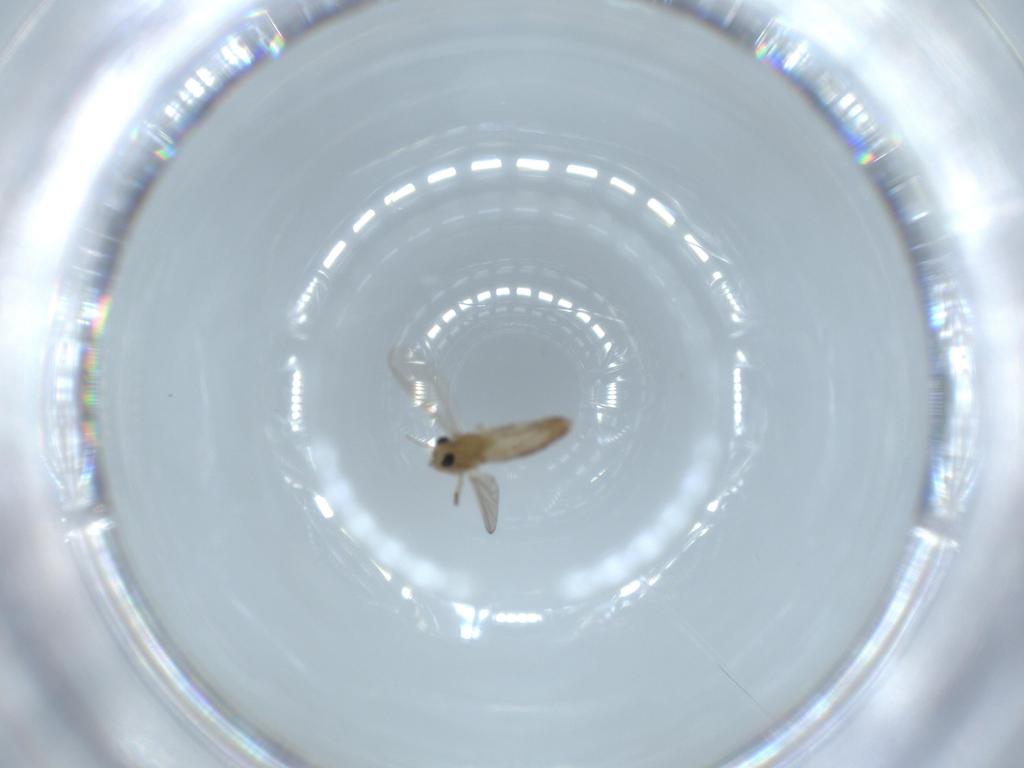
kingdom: Animalia
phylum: Arthropoda
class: Insecta
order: Diptera
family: Chironomidae
